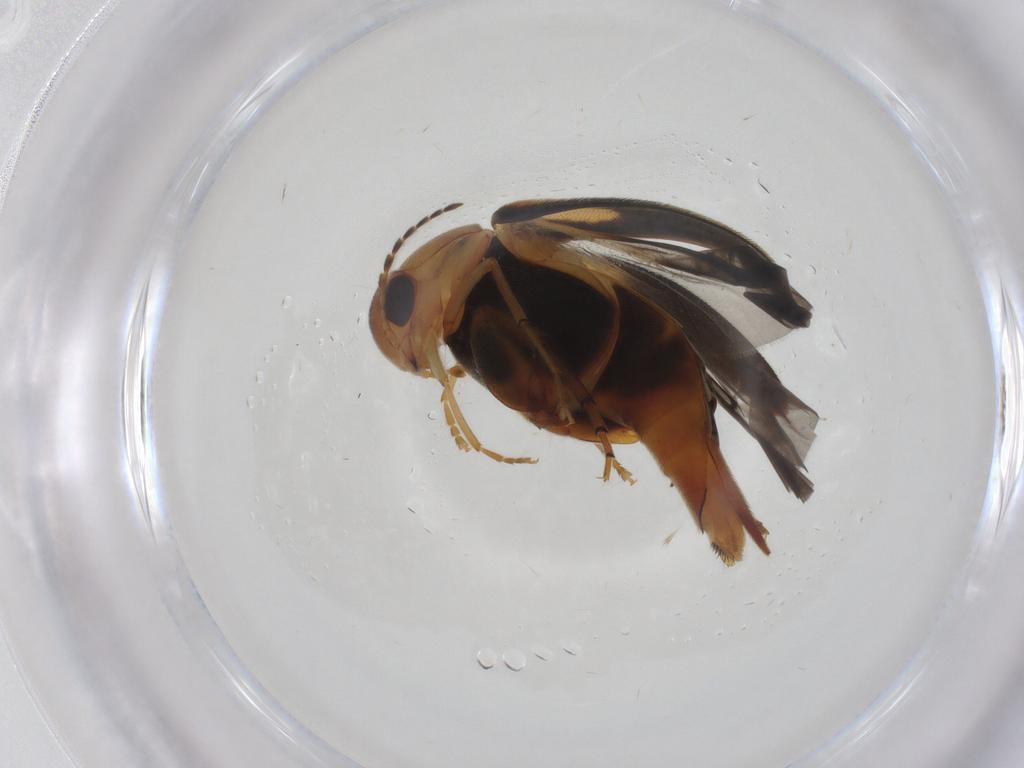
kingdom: Animalia
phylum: Arthropoda
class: Insecta
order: Coleoptera
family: Mordellidae
